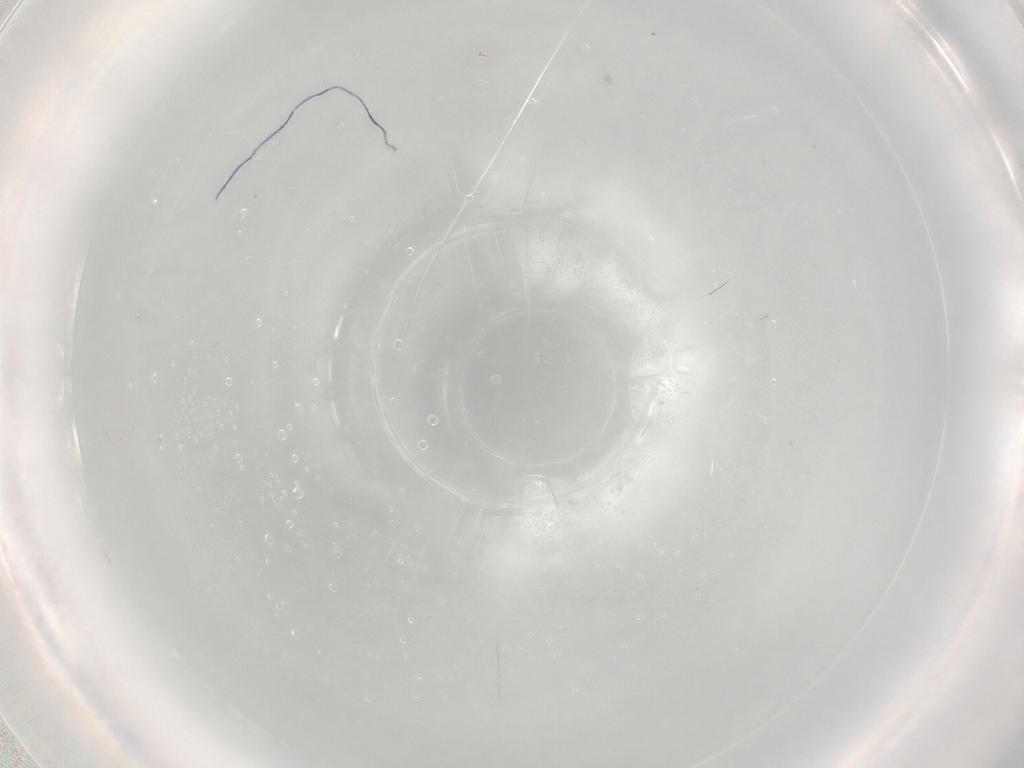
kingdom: Animalia
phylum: Arthropoda
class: Insecta
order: Diptera
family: Cecidomyiidae
